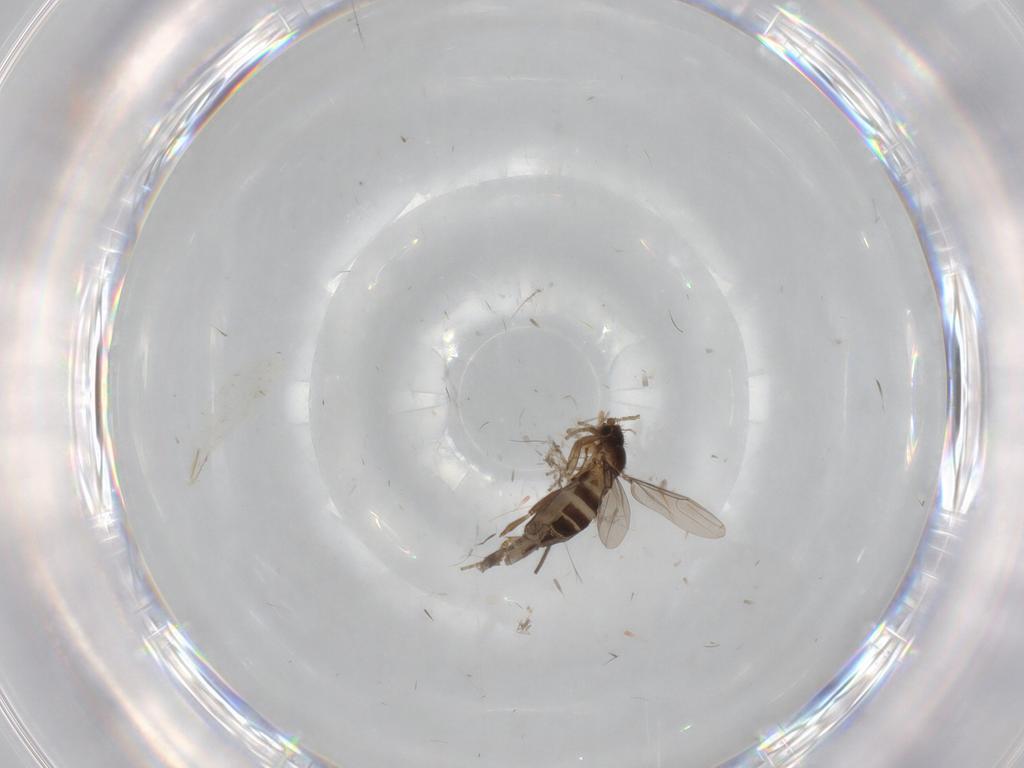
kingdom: Animalia
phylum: Arthropoda
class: Insecta
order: Diptera
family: Phoridae
